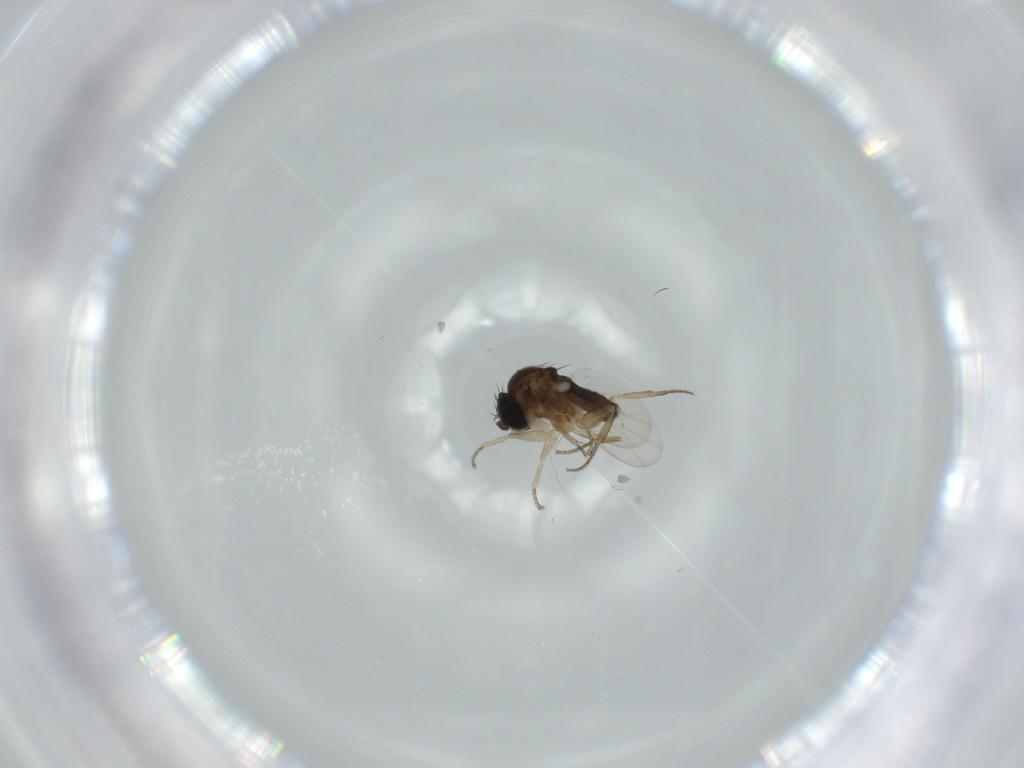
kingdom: Animalia
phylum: Arthropoda
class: Insecta
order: Diptera
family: Phoridae
